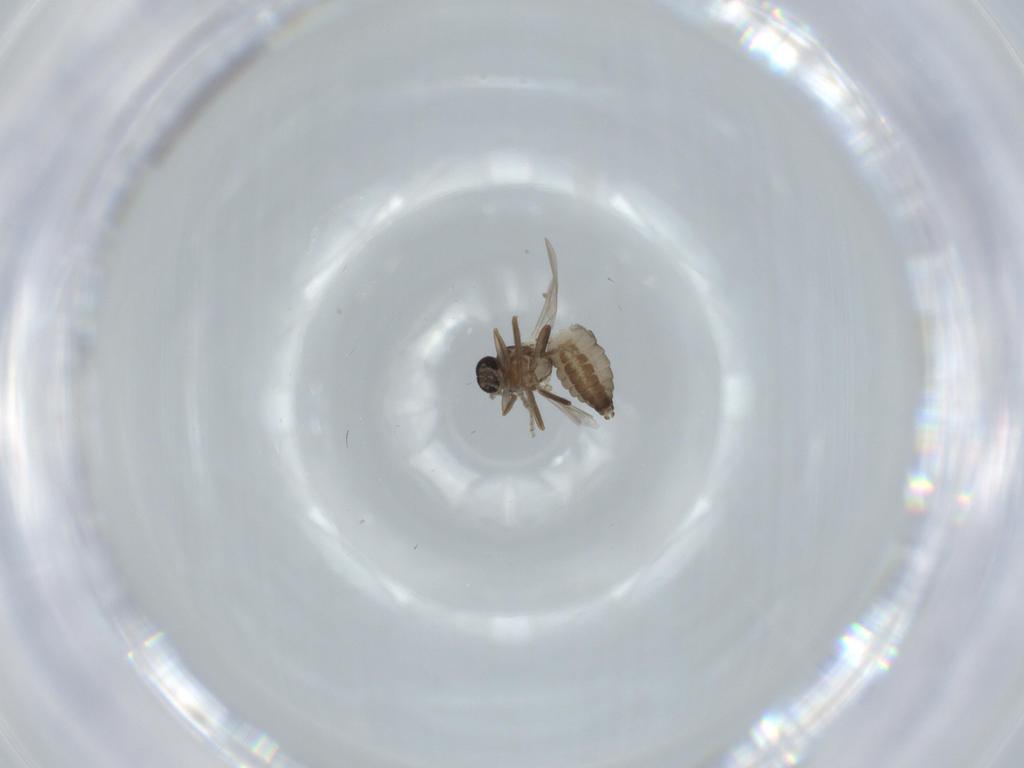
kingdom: Animalia
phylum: Arthropoda
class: Insecta
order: Diptera
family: Ceratopogonidae
